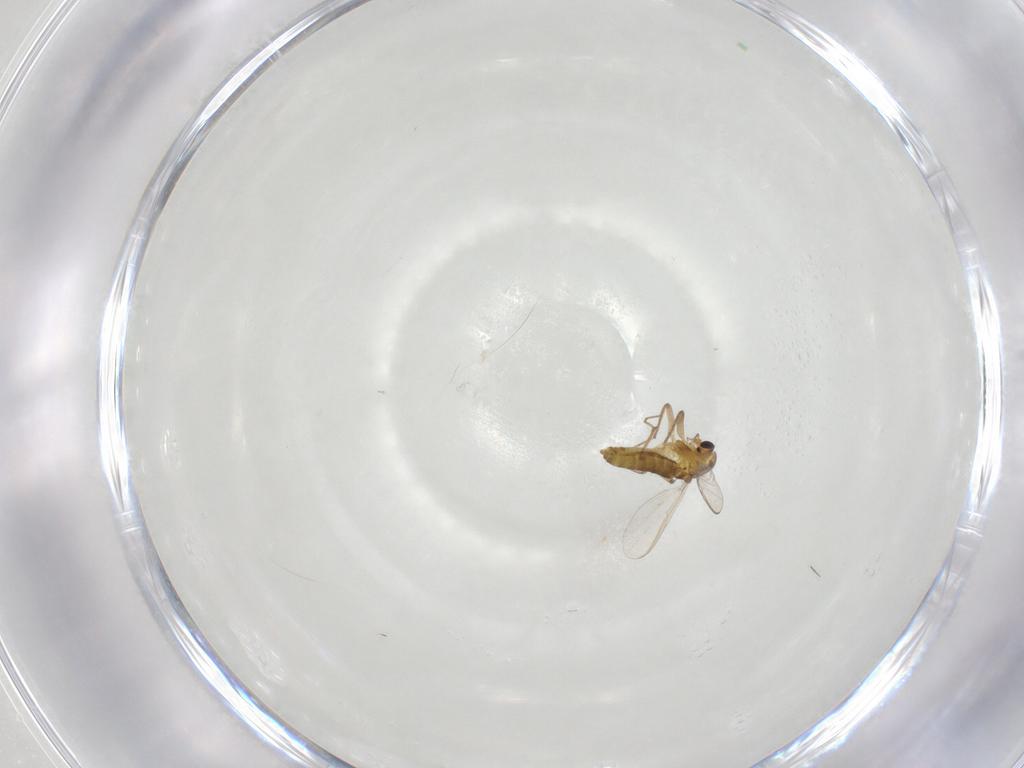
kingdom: Animalia
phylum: Arthropoda
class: Insecta
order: Diptera
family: Chironomidae
